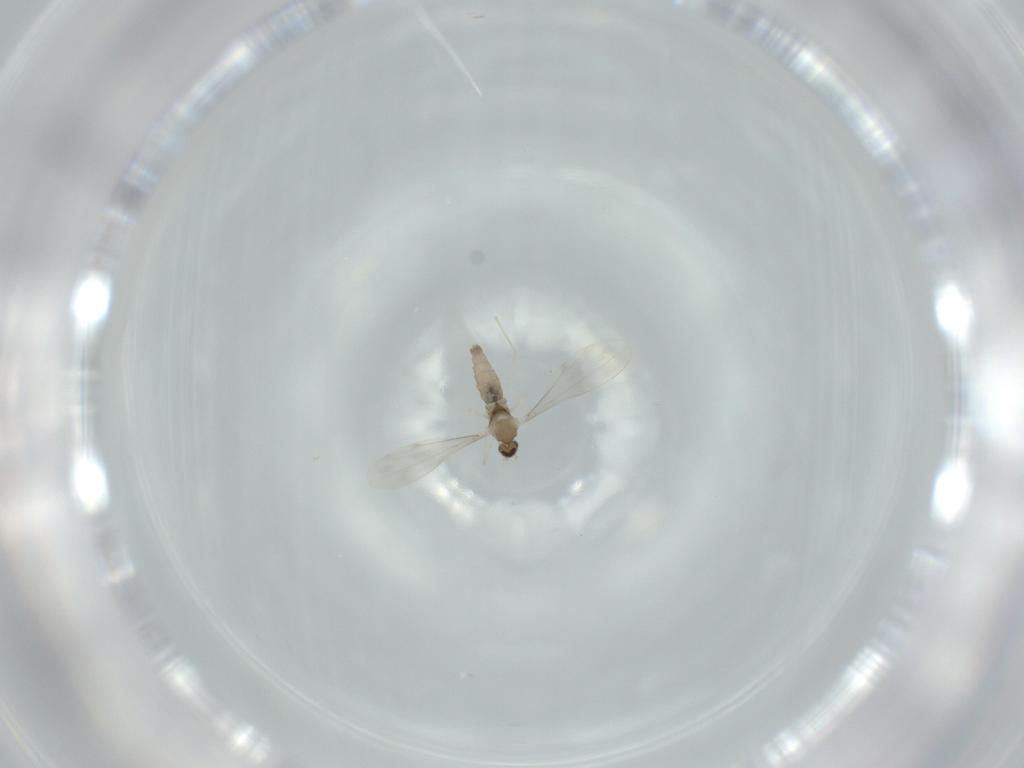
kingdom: Animalia
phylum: Arthropoda
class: Insecta
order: Diptera
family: Cecidomyiidae
